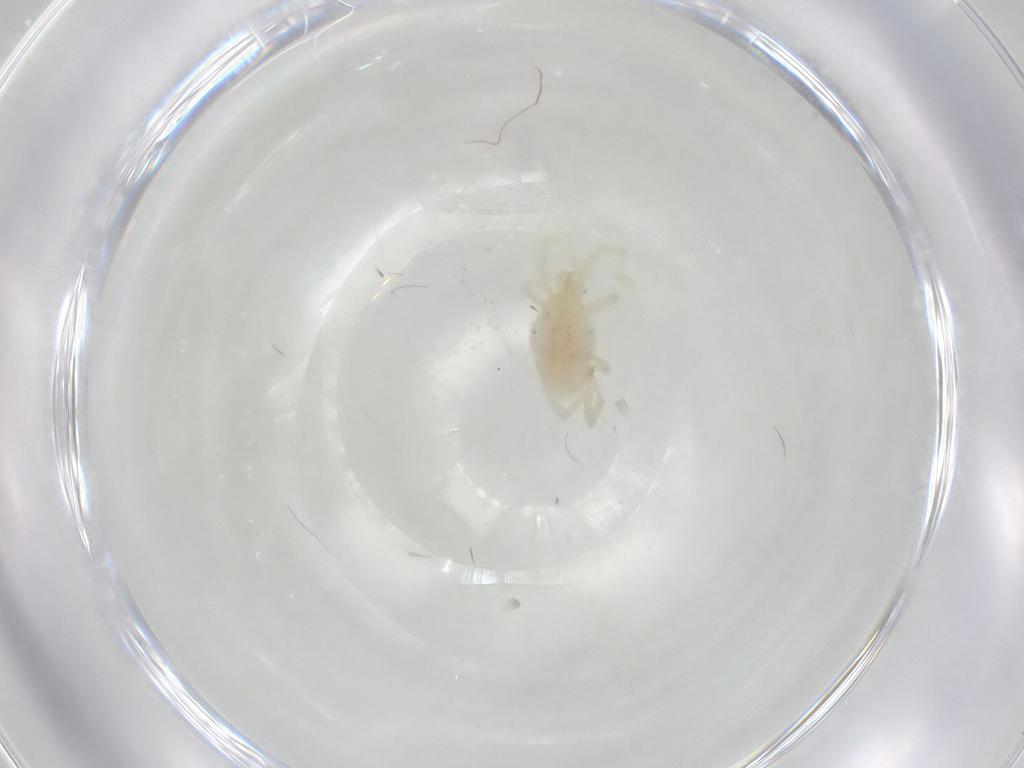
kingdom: Animalia
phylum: Arthropoda
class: Arachnida
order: Trombidiformes
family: Erythraeidae
